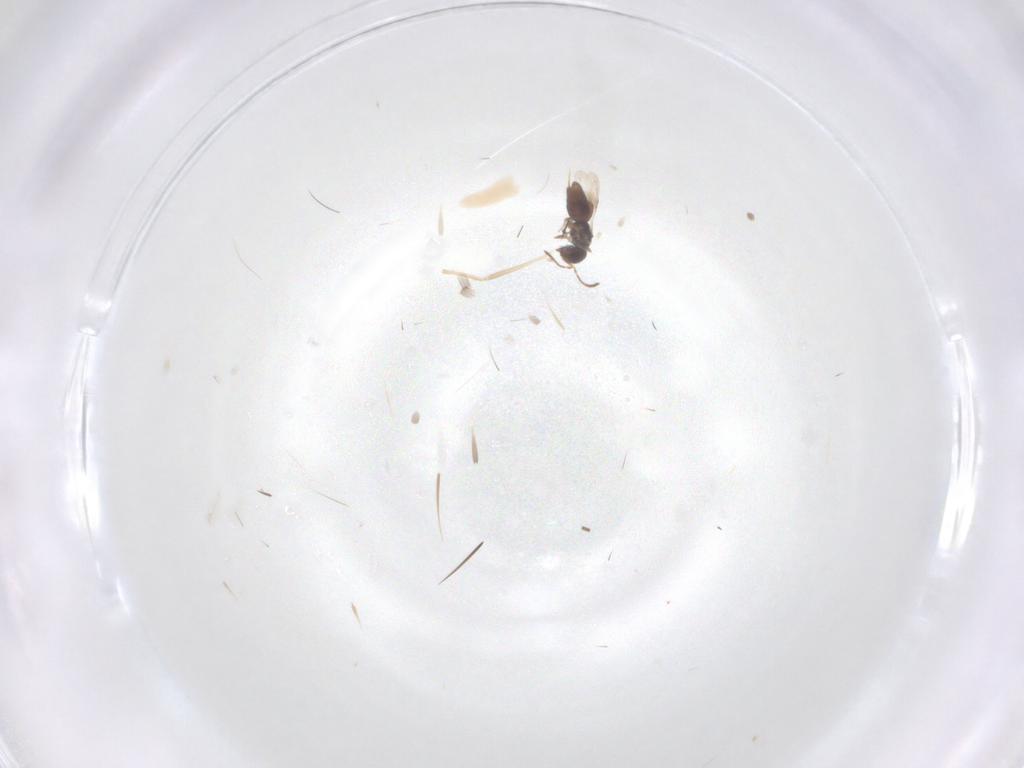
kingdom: Animalia
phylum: Arthropoda
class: Insecta
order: Diptera
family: Chironomidae
